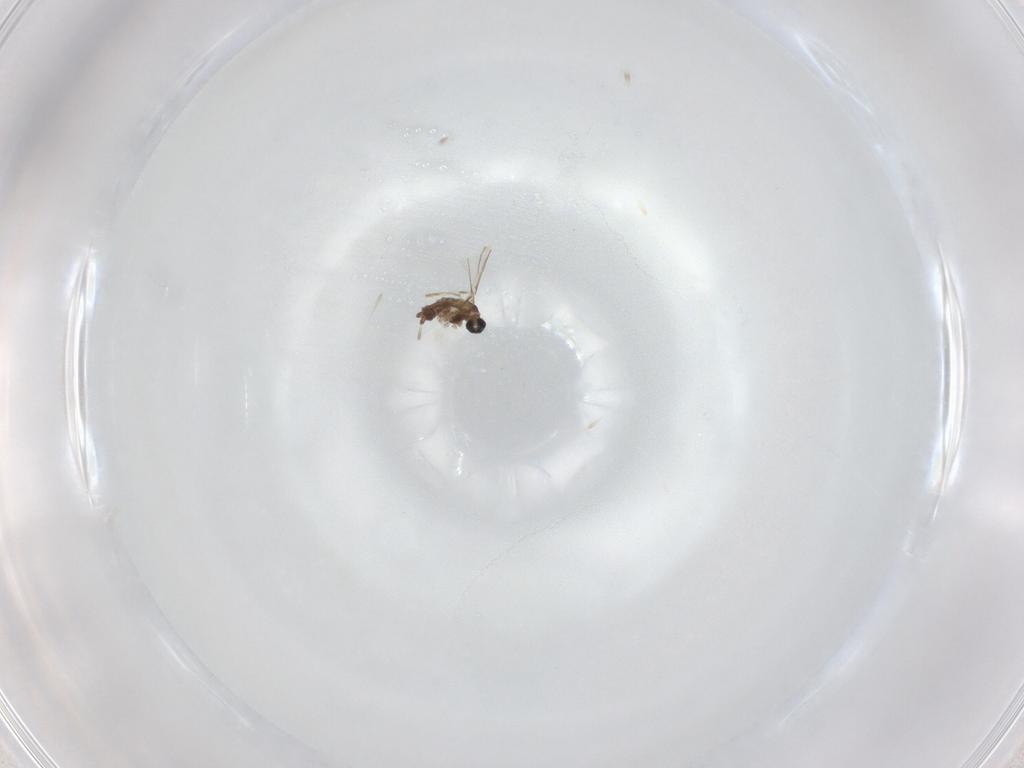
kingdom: Animalia
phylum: Arthropoda
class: Insecta
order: Diptera
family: Cecidomyiidae
